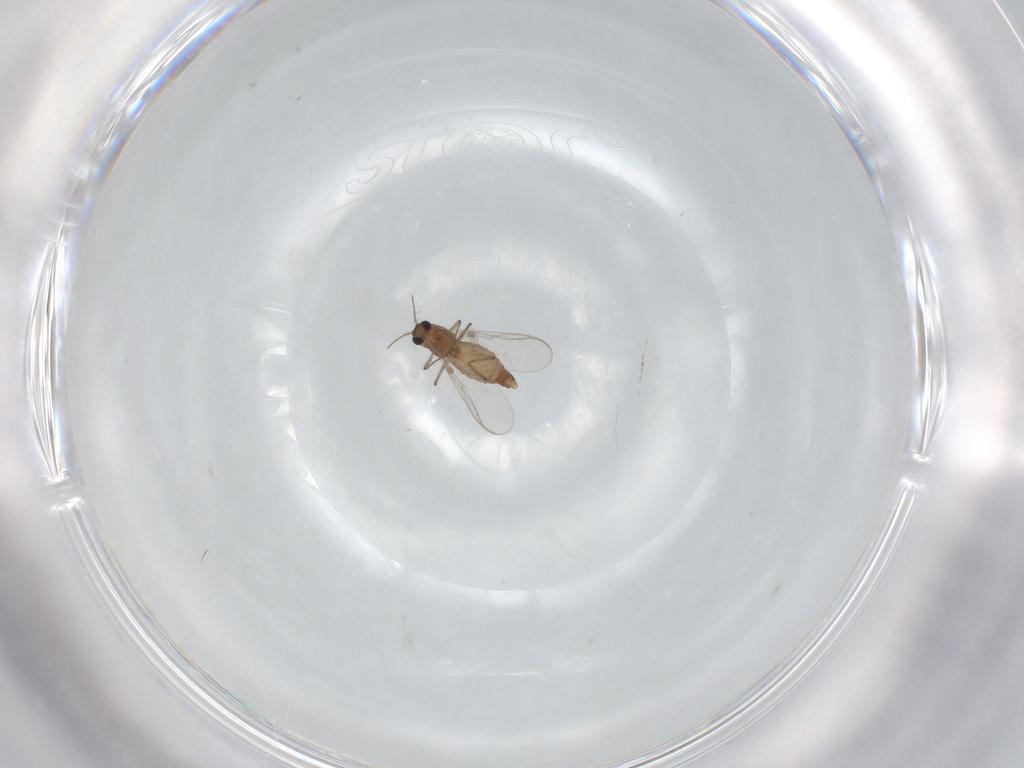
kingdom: Animalia
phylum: Arthropoda
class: Insecta
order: Diptera
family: Chironomidae
